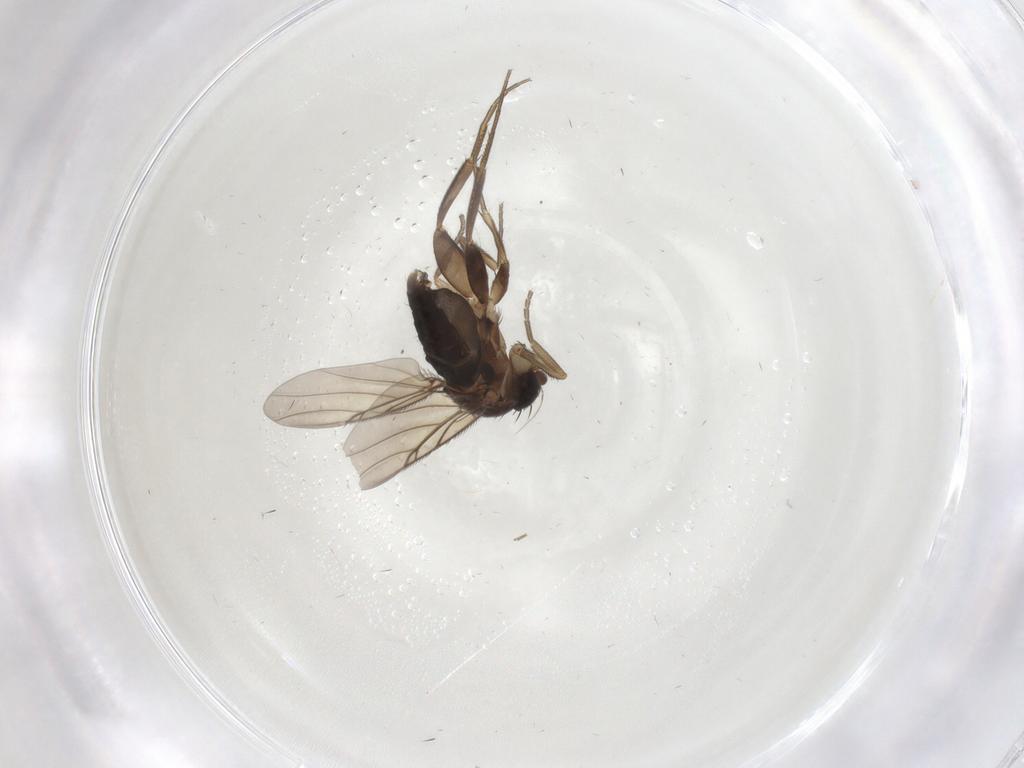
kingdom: Animalia
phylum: Arthropoda
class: Insecta
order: Diptera
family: Phoridae
